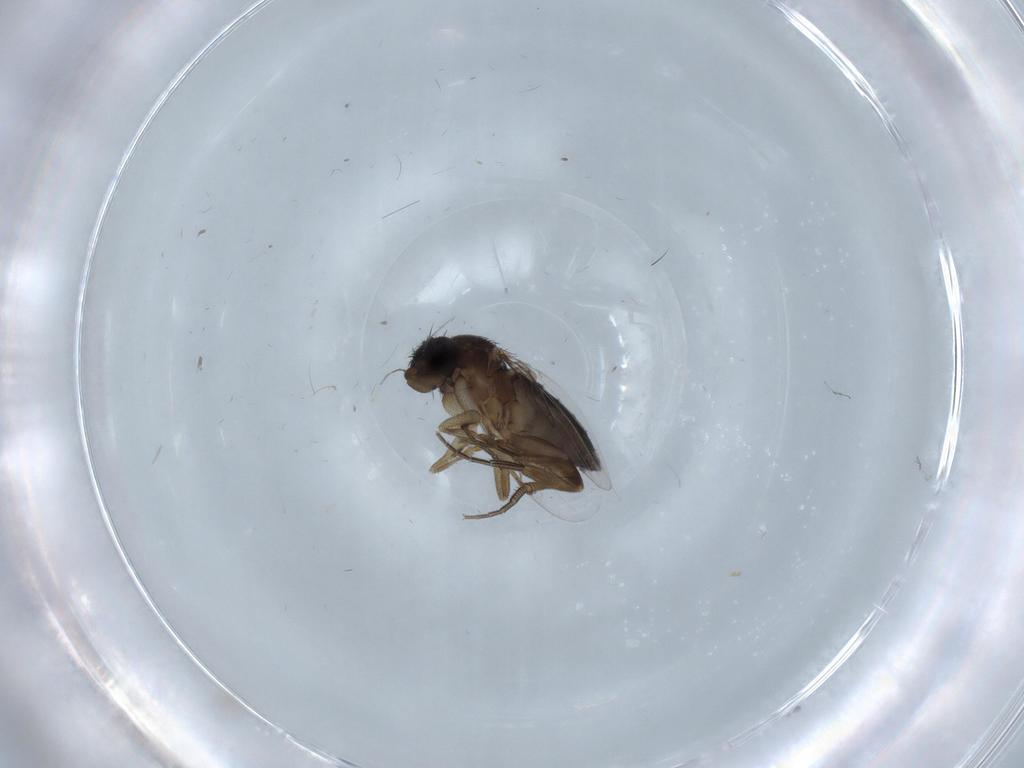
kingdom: Animalia
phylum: Arthropoda
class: Insecta
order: Diptera
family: Phoridae
